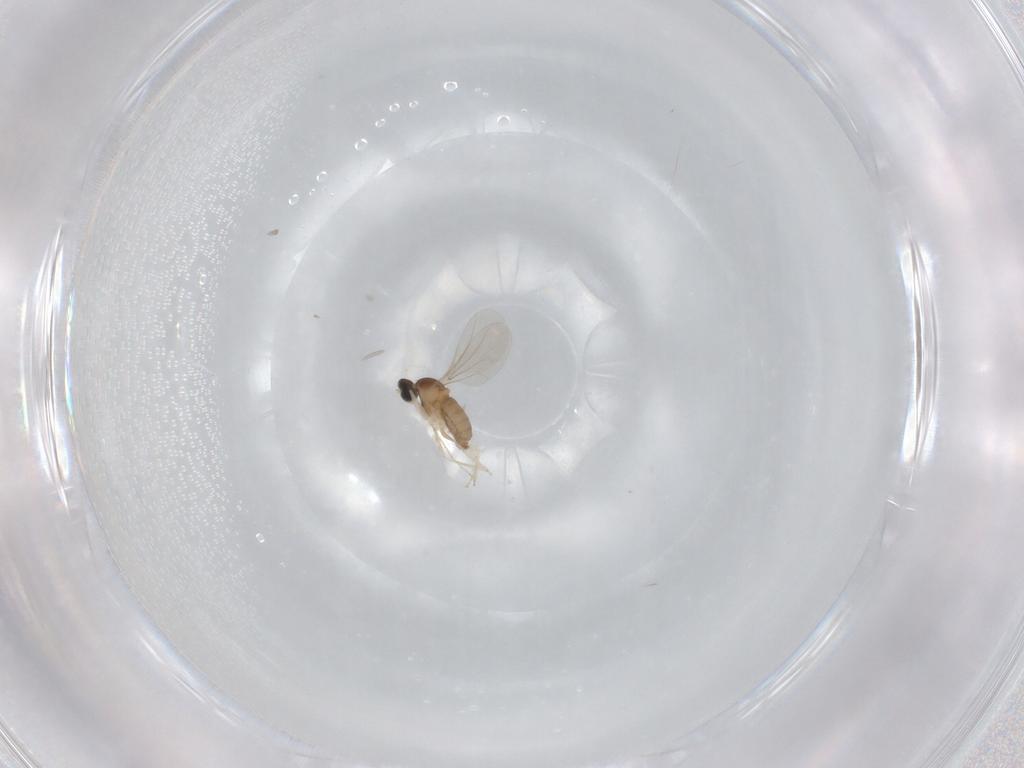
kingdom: Animalia
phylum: Arthropoda
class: Insecta
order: Diptera
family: Cecidomyiidae
